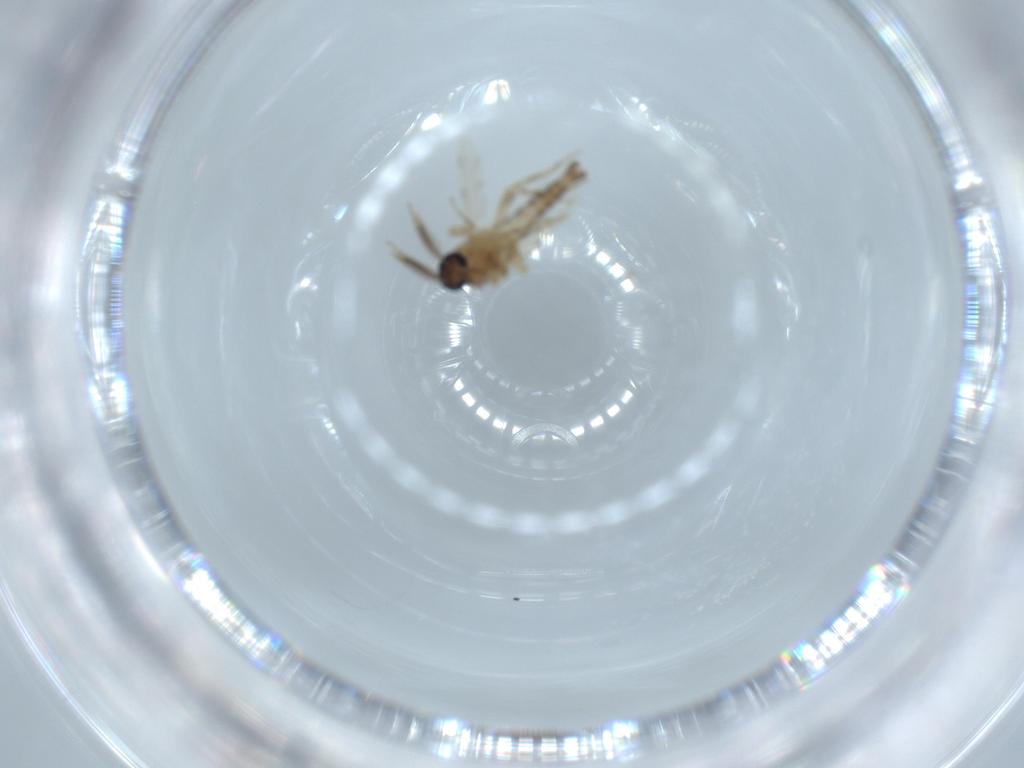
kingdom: Animalia
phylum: Arthropoda
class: Insecta
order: Diptera
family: Ceratopogonidae
